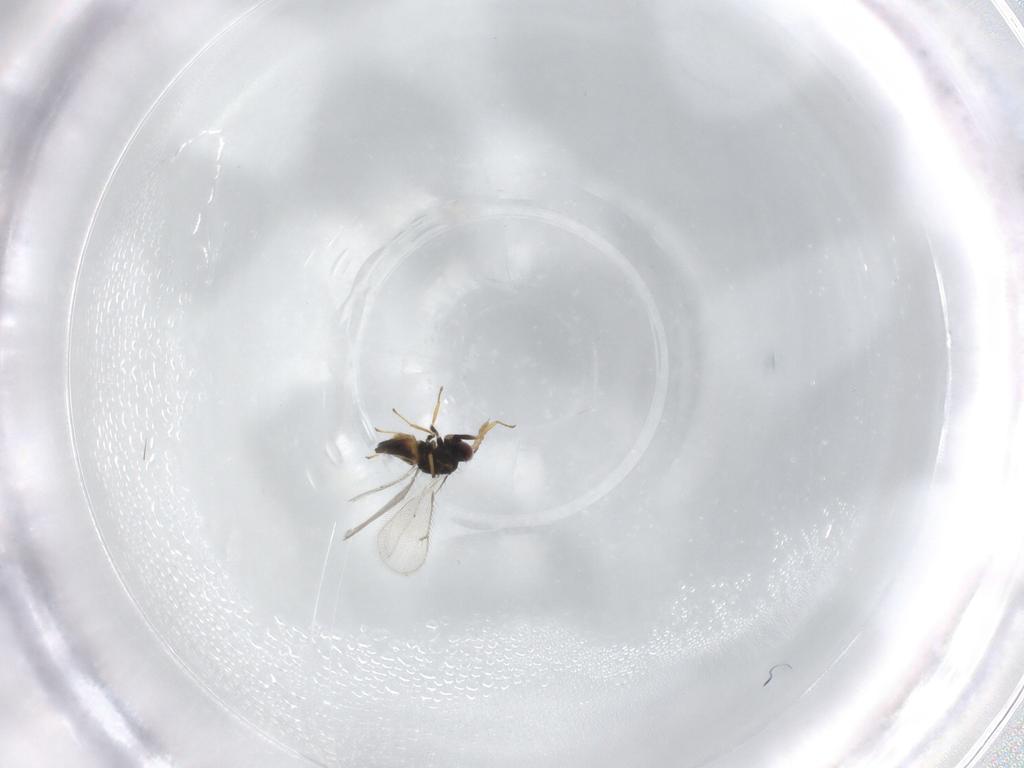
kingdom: Animalia
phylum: Arthropoda
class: Insecta
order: Hymenoptera
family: Eulophidae
